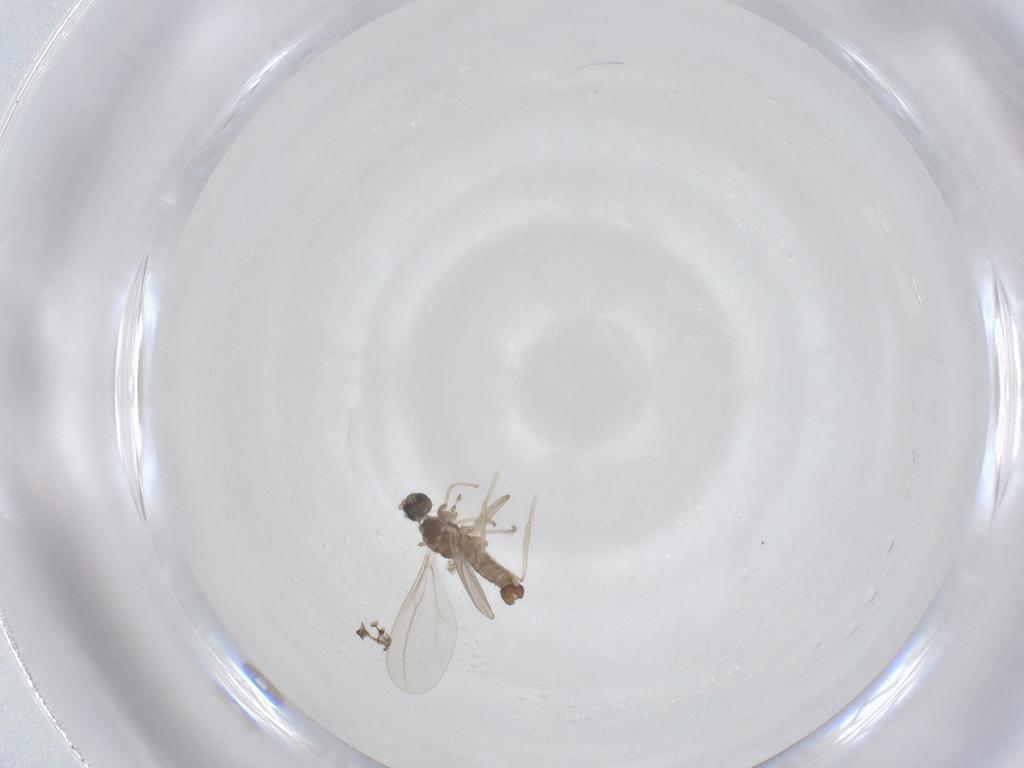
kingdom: Animalia
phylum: Arthropoda
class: Insecta
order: Diptera
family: Cecidomyiidae
